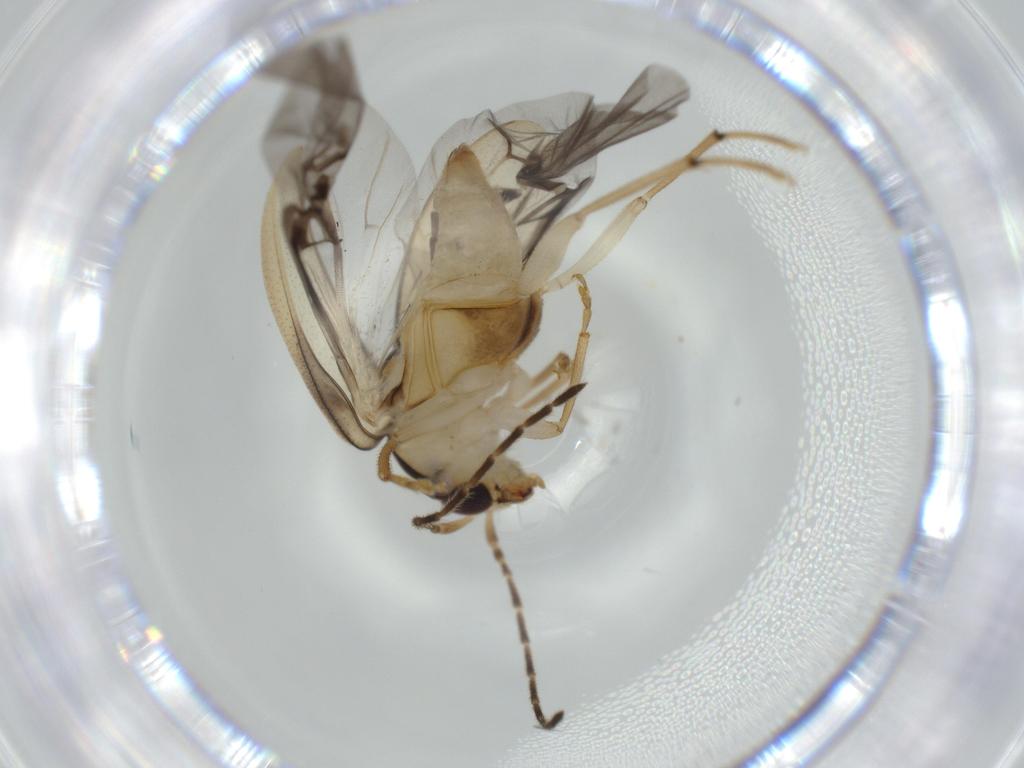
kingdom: Animalia
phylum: Arthropoda
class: Insecta
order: Coleoptera
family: Chrysomelidae
